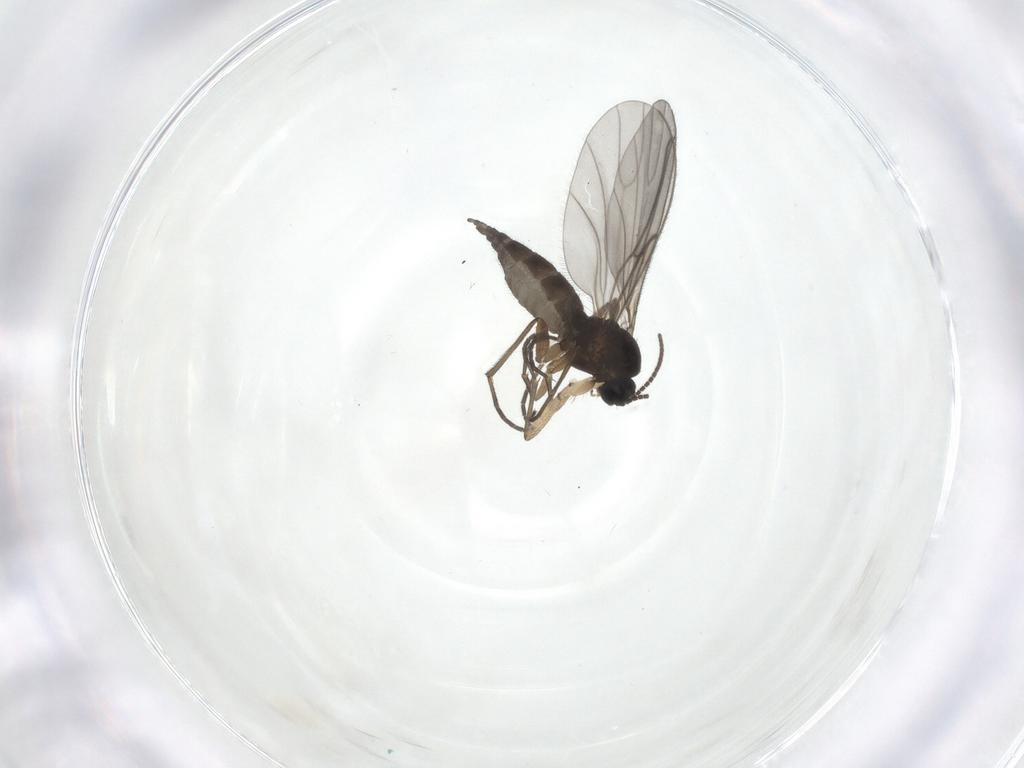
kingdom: Animalia
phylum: Arthropoda
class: Insecta
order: Diptera
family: Sciaridae
